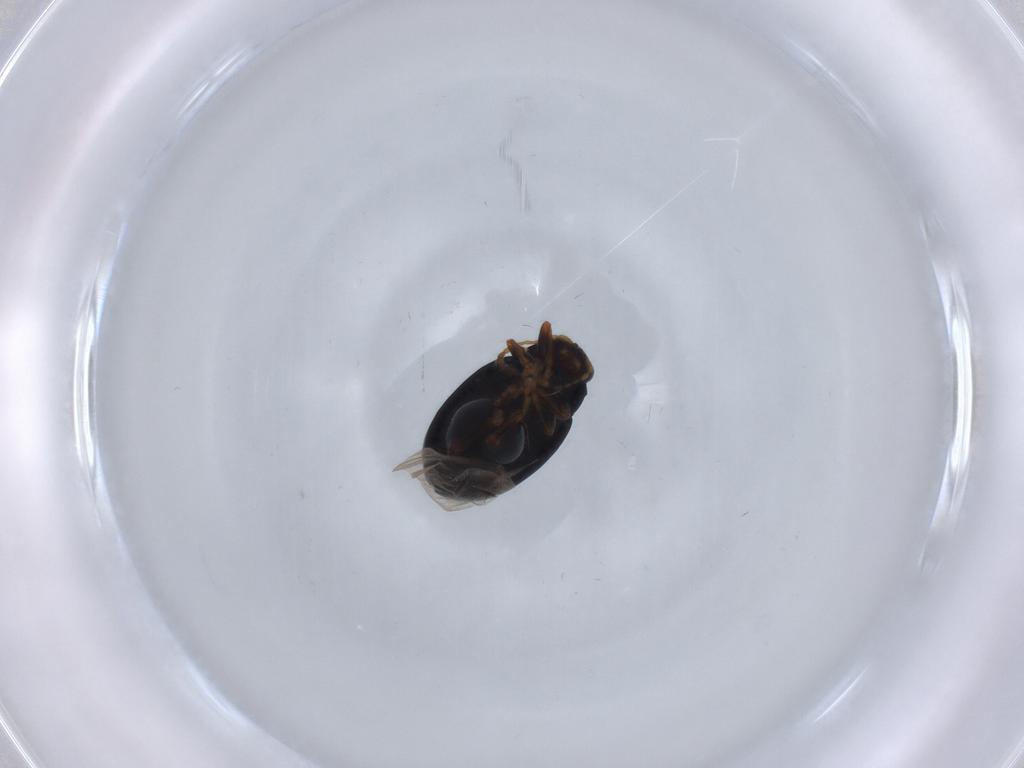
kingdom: Animalia
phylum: Arthropoda
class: Insecta
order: Coleoptera
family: Chrysomelidae
